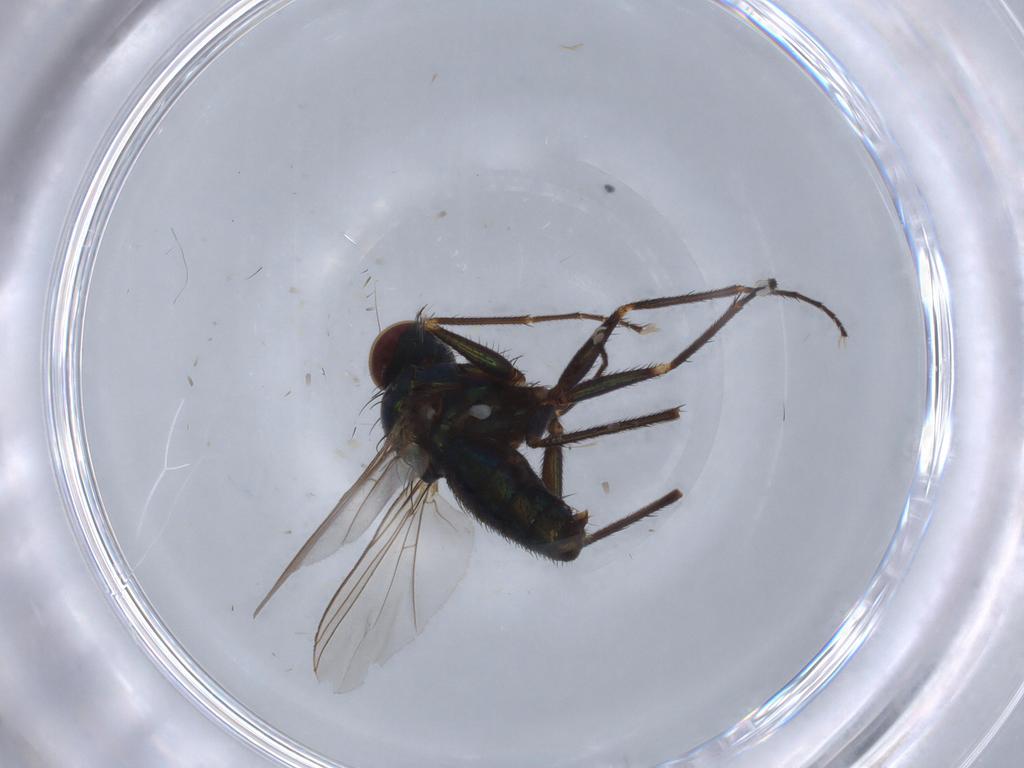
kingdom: Animalia
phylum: Arthropoda
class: Insecta
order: Diptera
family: Dolichopodidae
